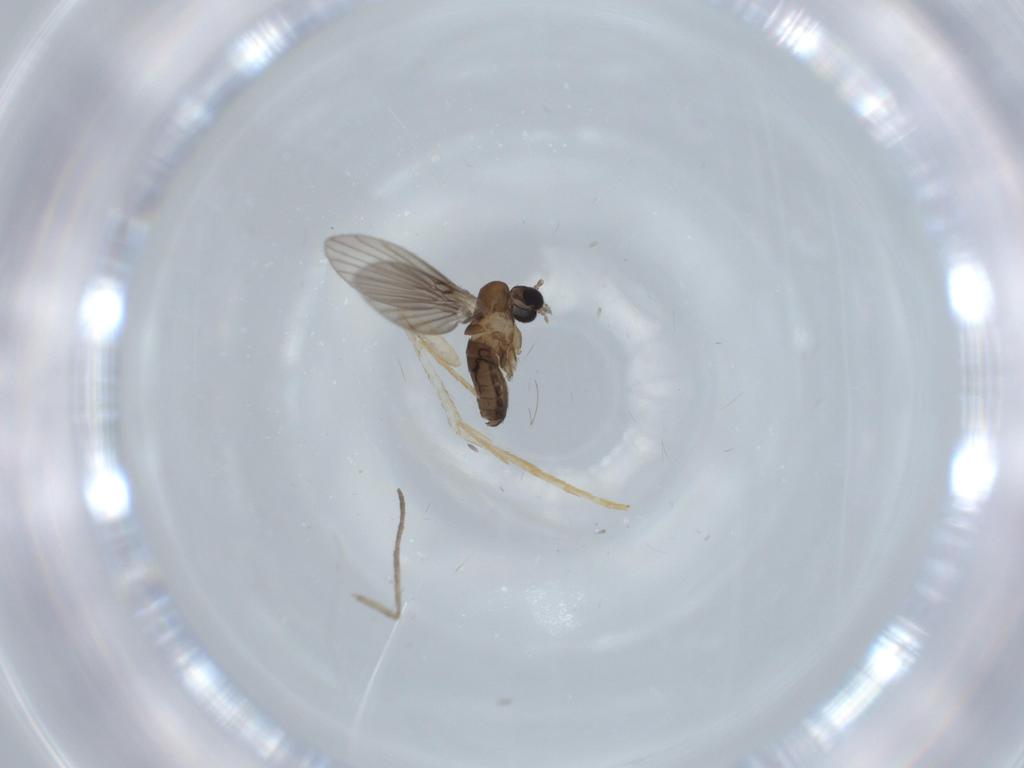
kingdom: Animalia
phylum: Arthropoda
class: Insecta
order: Diptera
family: Psychodidae
